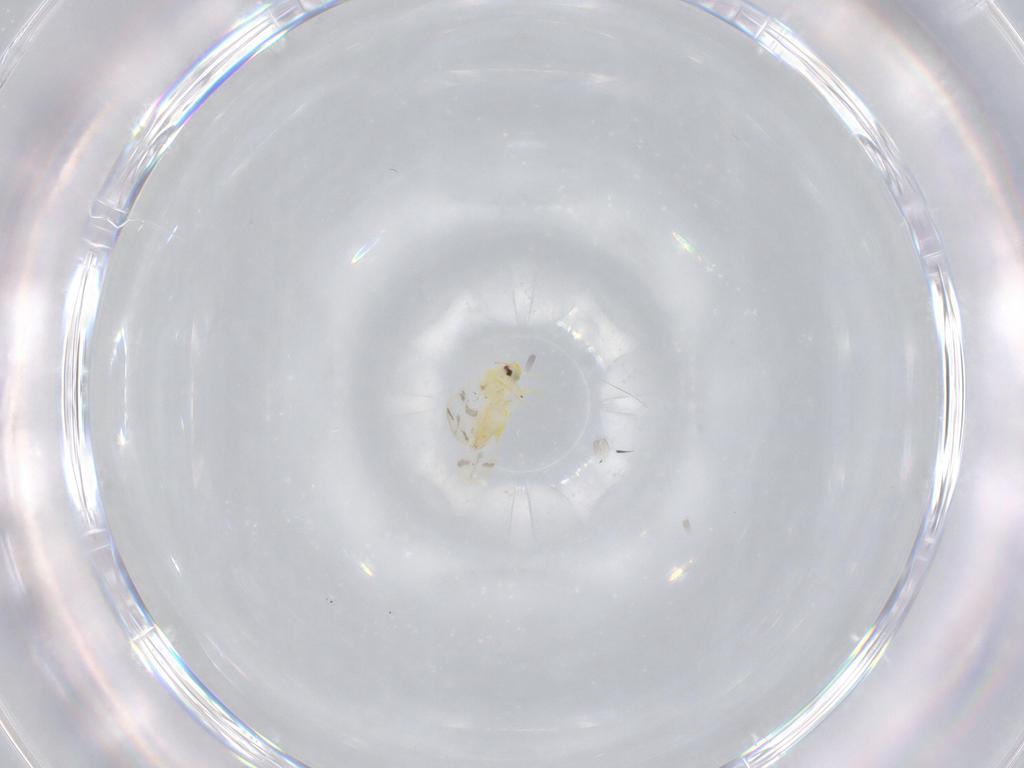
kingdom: Animalia
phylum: Arthropoda
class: Insecta
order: Hemiptera
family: Aleyrodidae
